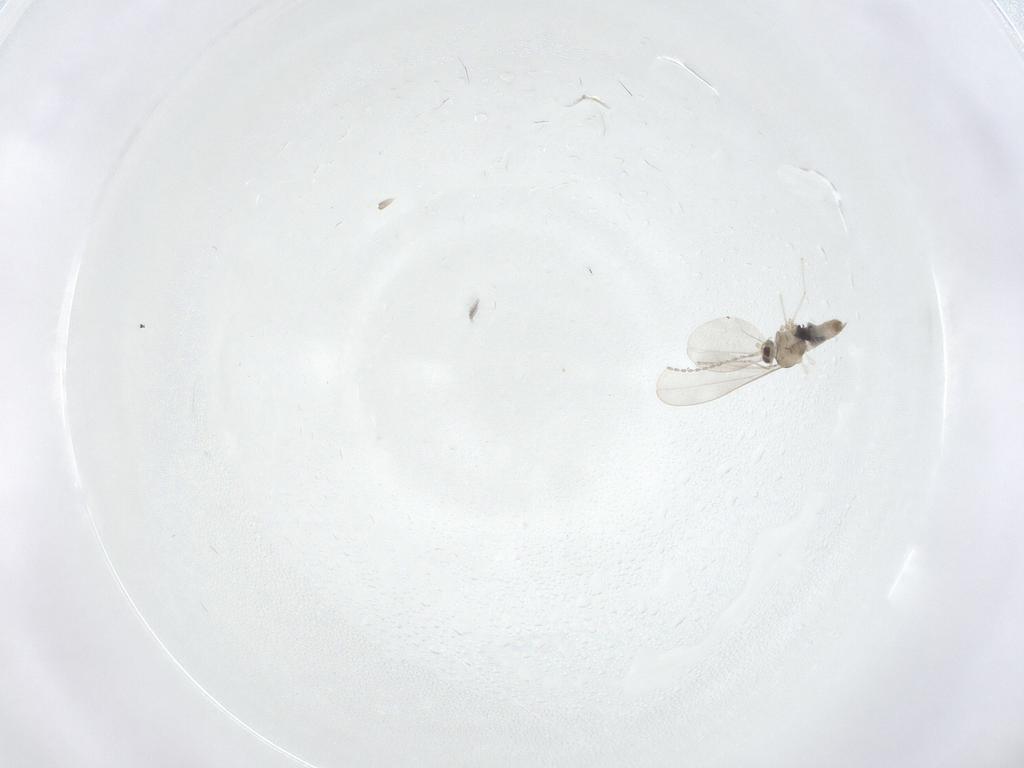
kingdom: Animalia
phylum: Arthropoda
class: Insecta
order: Diptera
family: Cecidomyiidae
